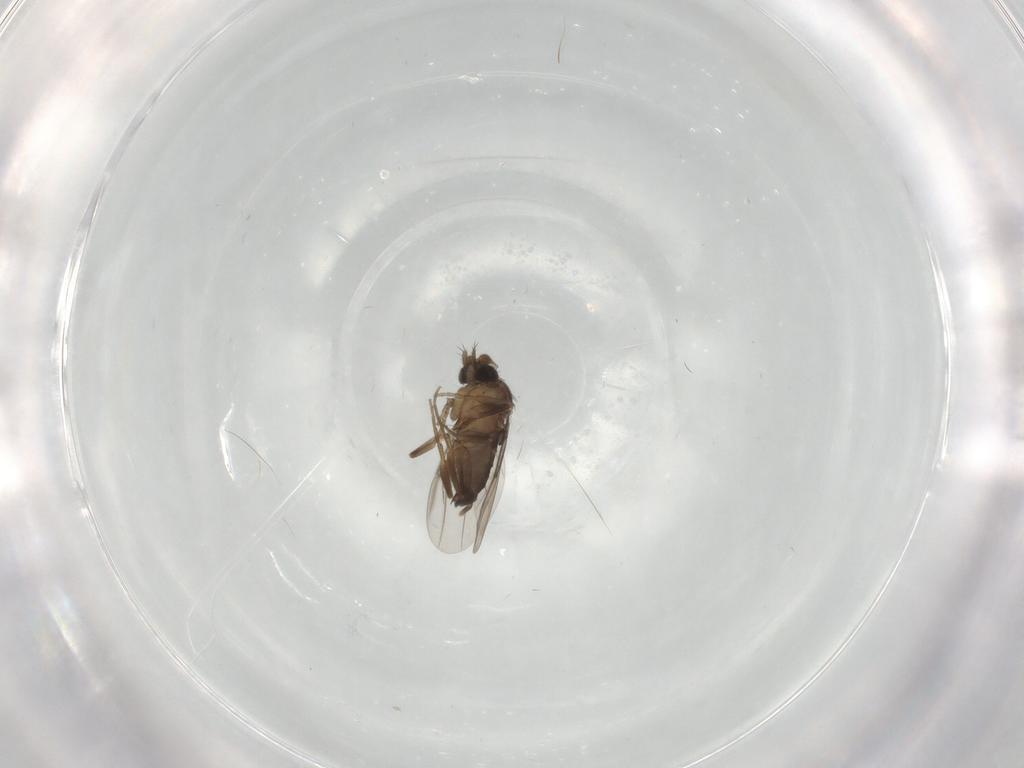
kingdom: Animalia
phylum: Arthropoda
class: Insecta
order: Diptera
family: Phoridae
